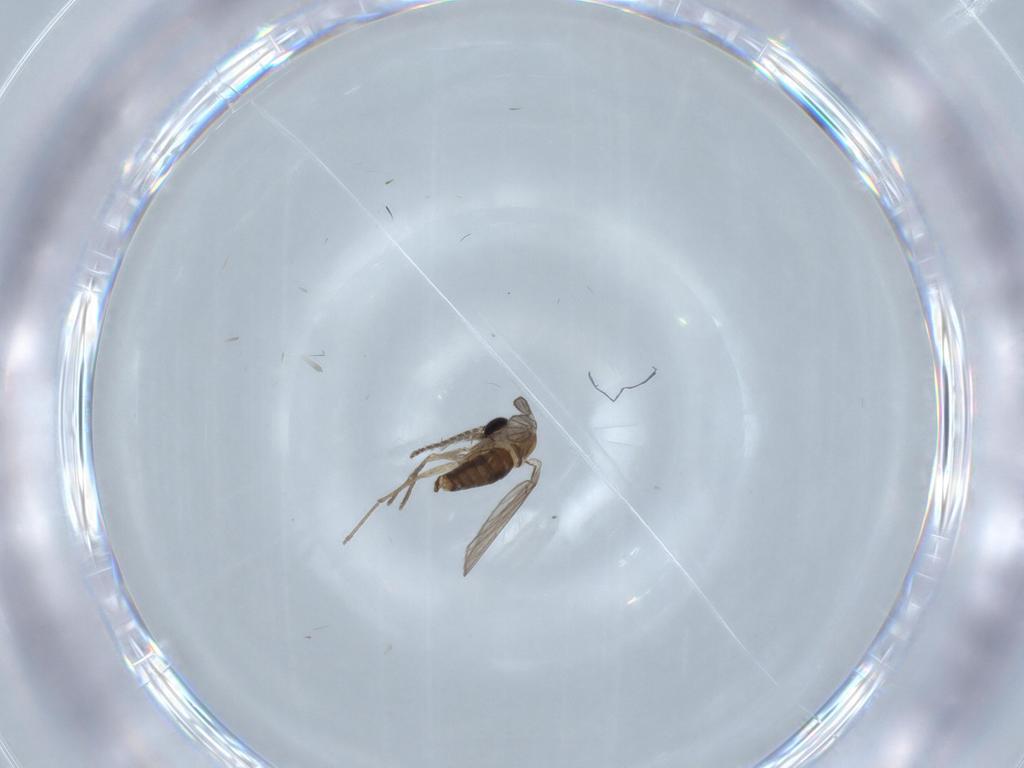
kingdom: Animalia
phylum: Arthropoda
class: Insecta
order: Diptera
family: Psychodidae
